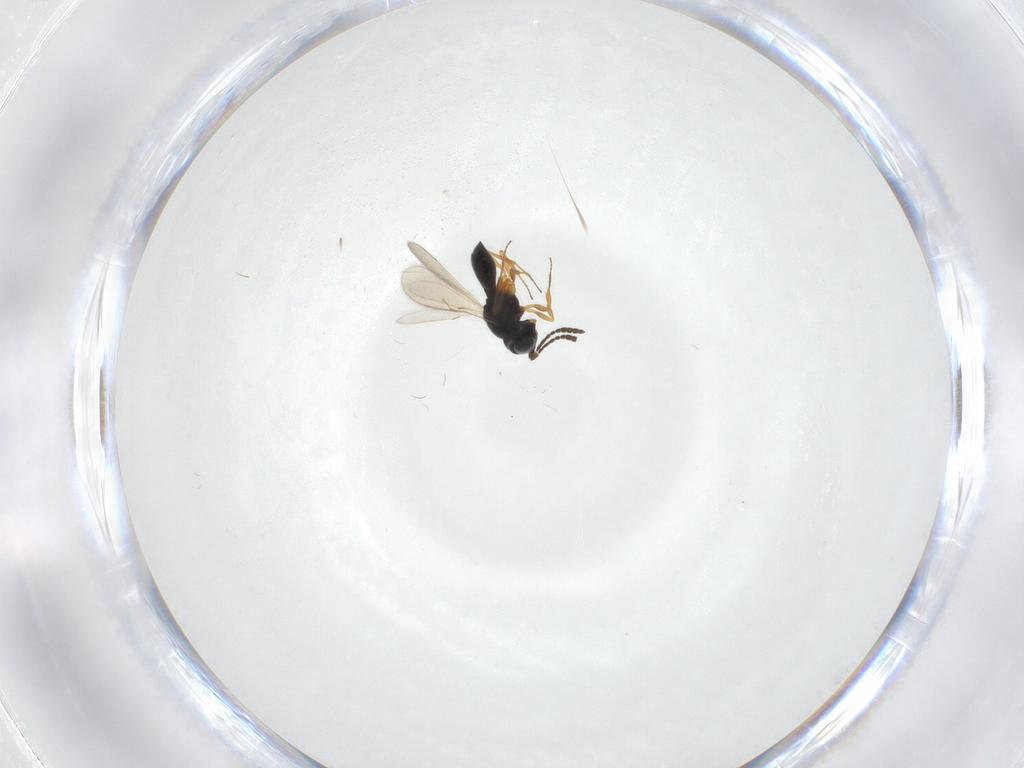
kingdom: Animalia
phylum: Arthropoda
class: Insecta
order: Hymenoptera
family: Scelionidae
